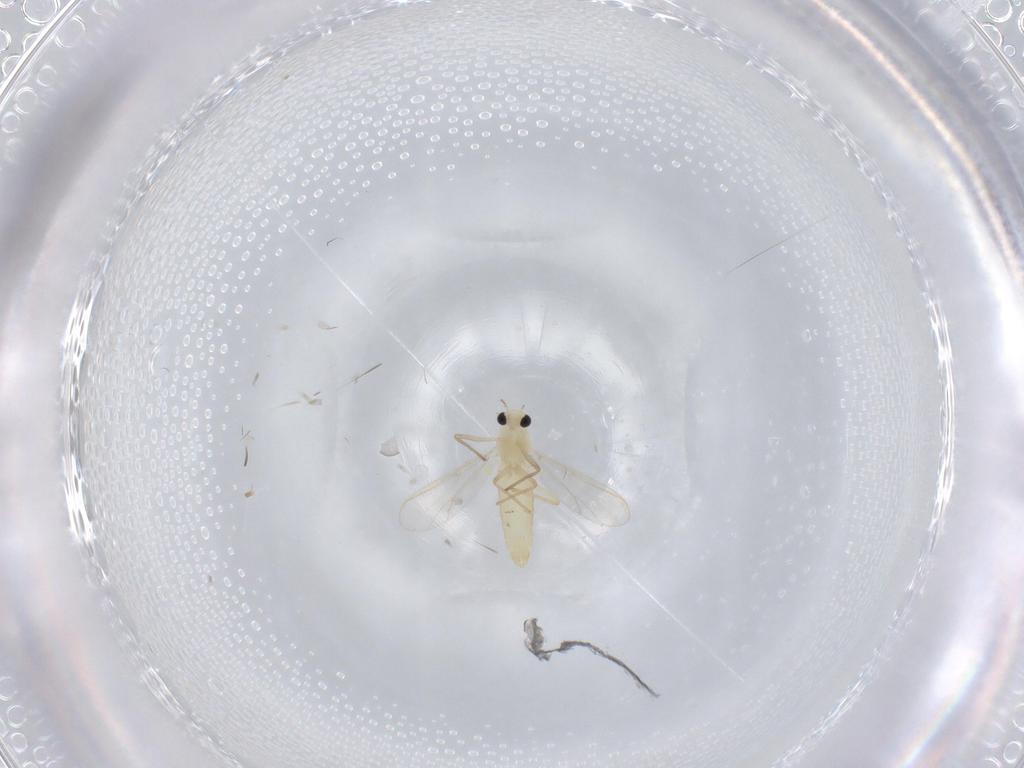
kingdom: Animalia
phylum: Arthropoda
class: Insecta
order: Diptera
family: Chironomidae
